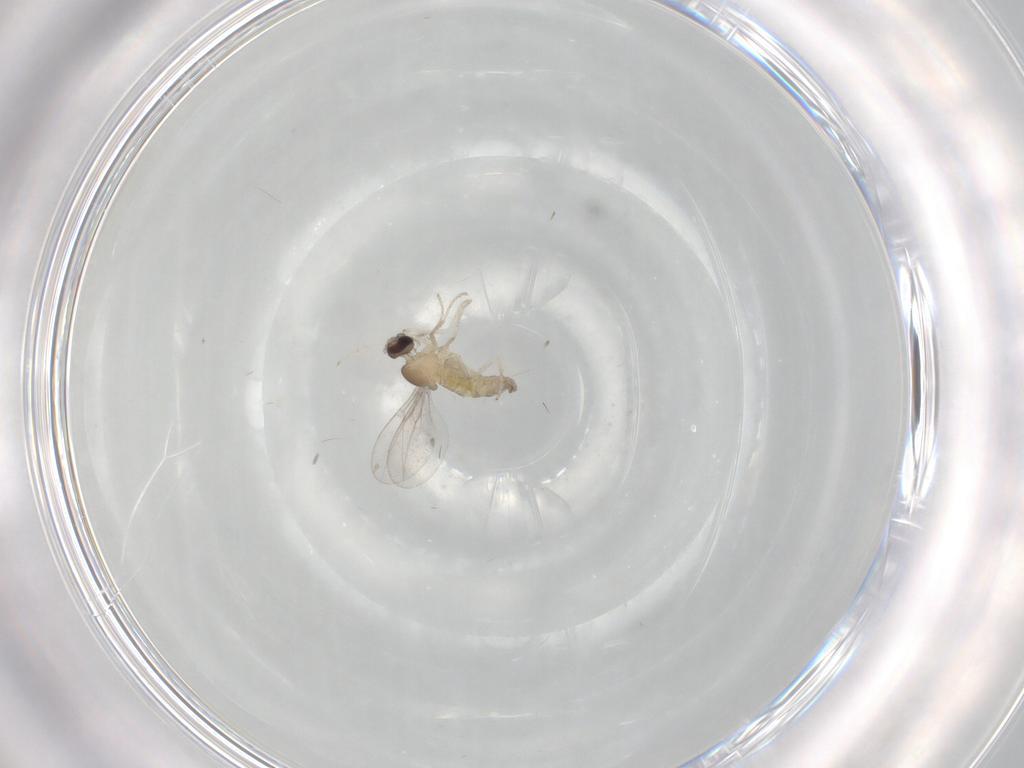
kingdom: Animalia
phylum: Arthropoda
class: Insecta
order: Diptera
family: Cecidomyiidae
